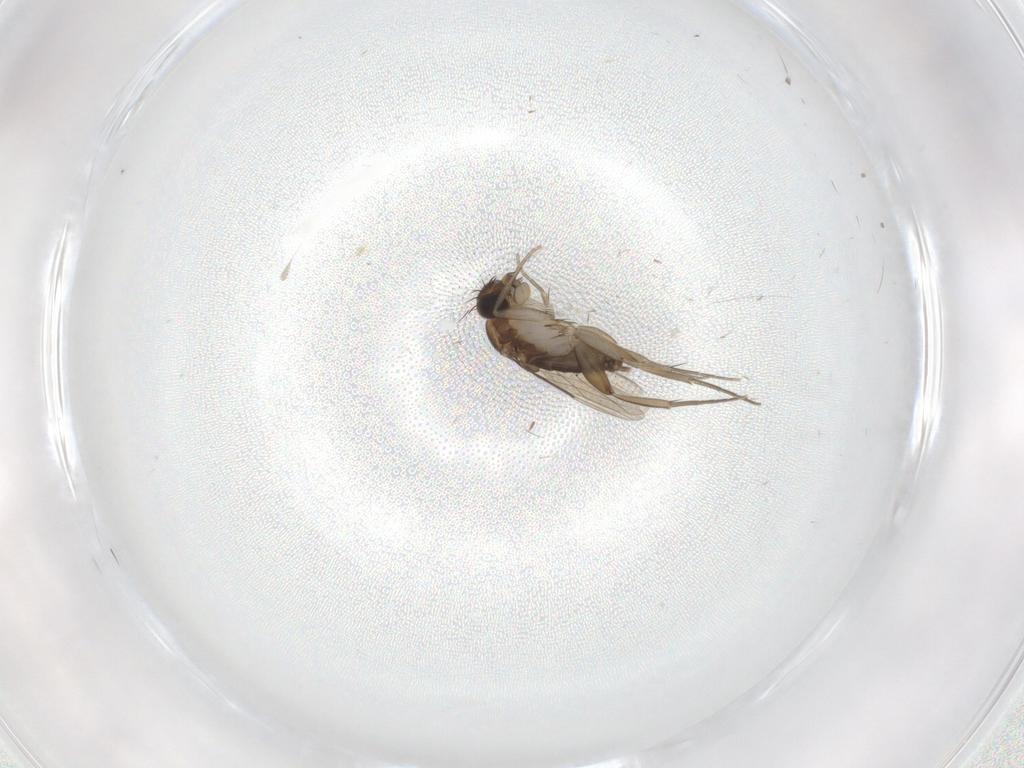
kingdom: Animalia
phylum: Arthropoda
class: Insecta
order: Diptera
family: Phoridae
